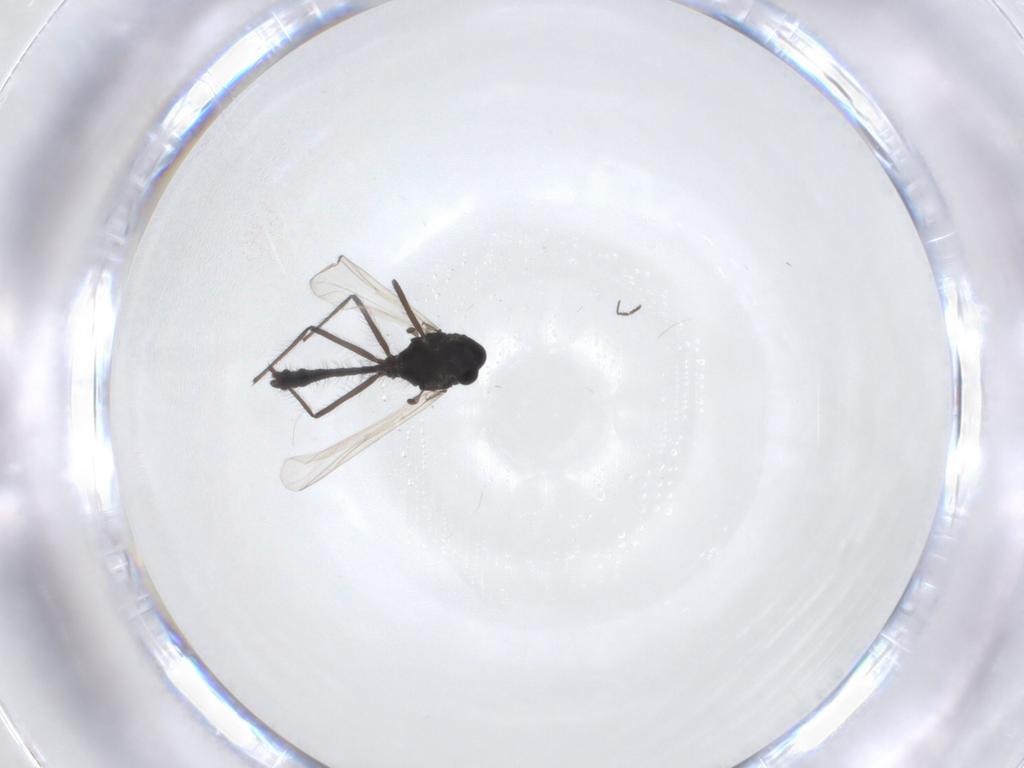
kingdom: Animalia
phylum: Arthropoda
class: Insecta
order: Diptera
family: Chironomidae
